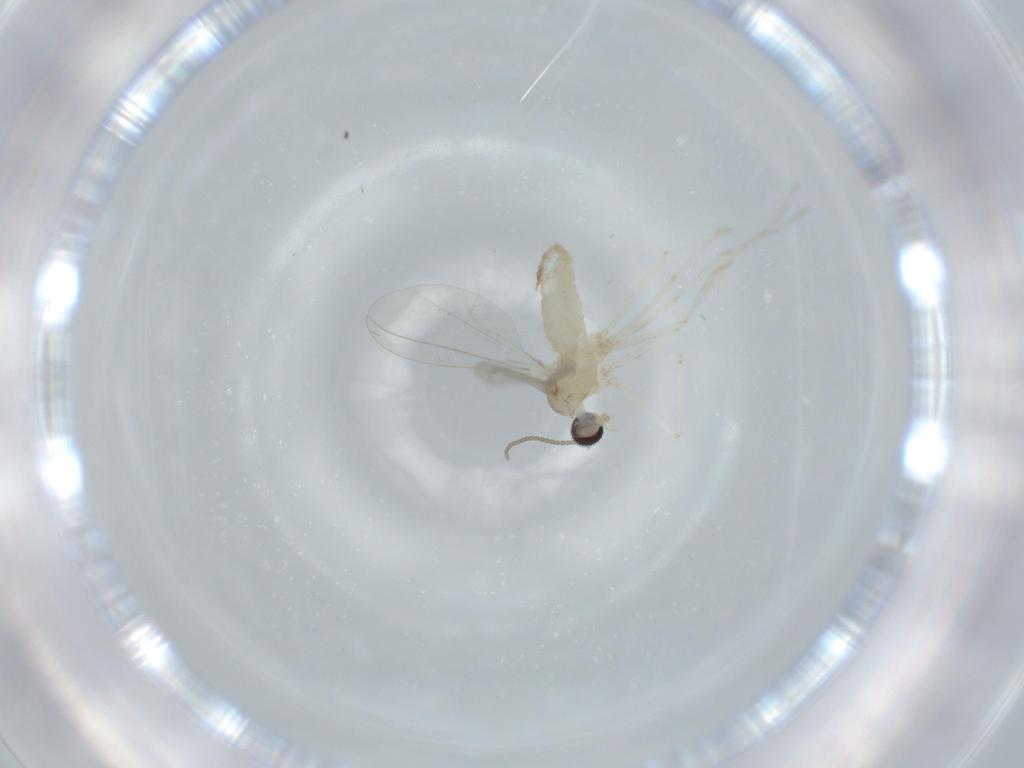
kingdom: Animalia
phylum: Arthropoda
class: Insecta
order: Diptera
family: Cecidomyiidae
